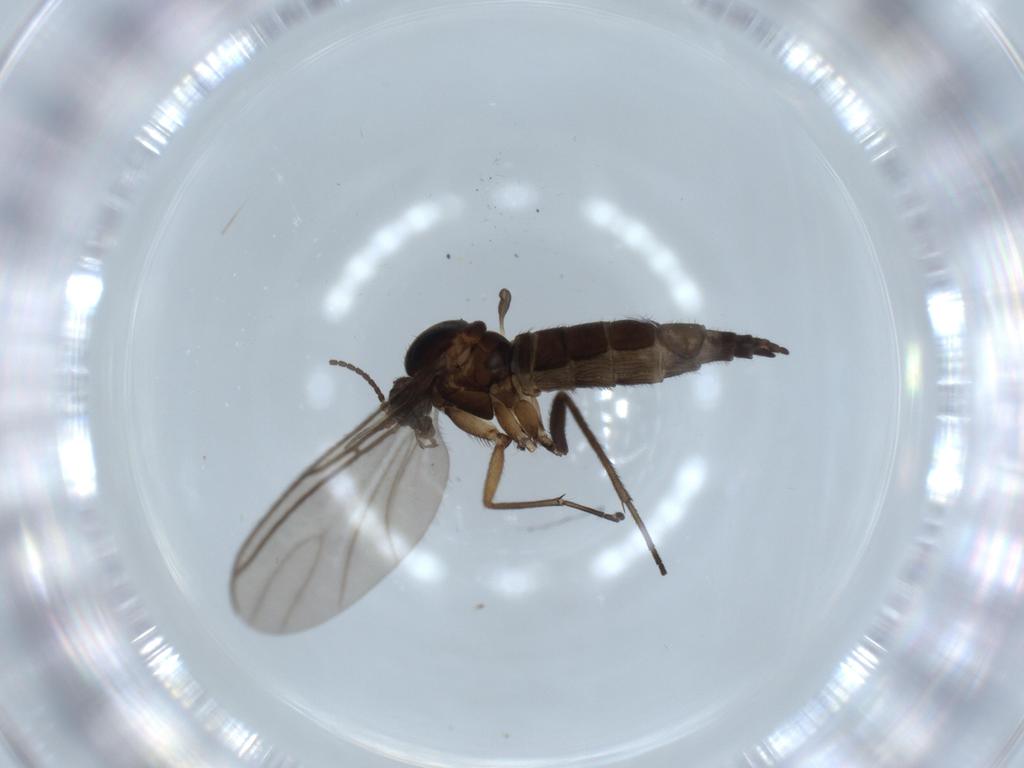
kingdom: Animalia
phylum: Arthropoda
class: Insecta
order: Diptera
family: Sciaridae
